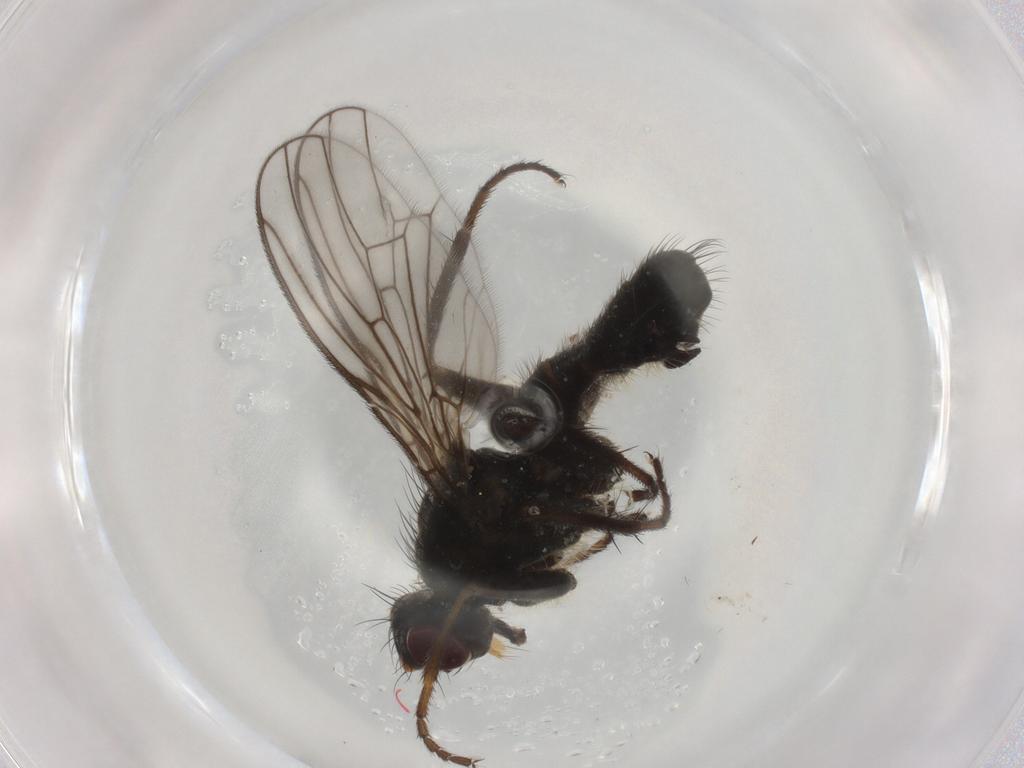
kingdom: Animalia
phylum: Arthropoda
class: Insecta
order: Diptera
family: Scathophagidae
